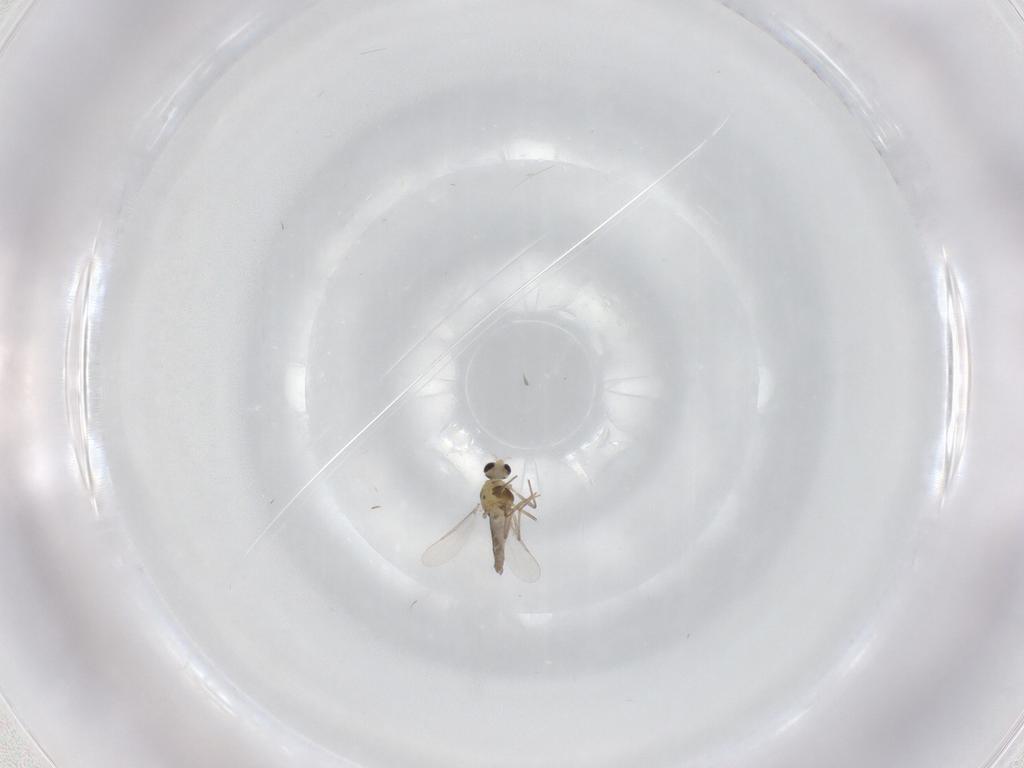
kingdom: Animalia
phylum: Arthropoda
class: Insecta
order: Diptera
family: Chironomidae
